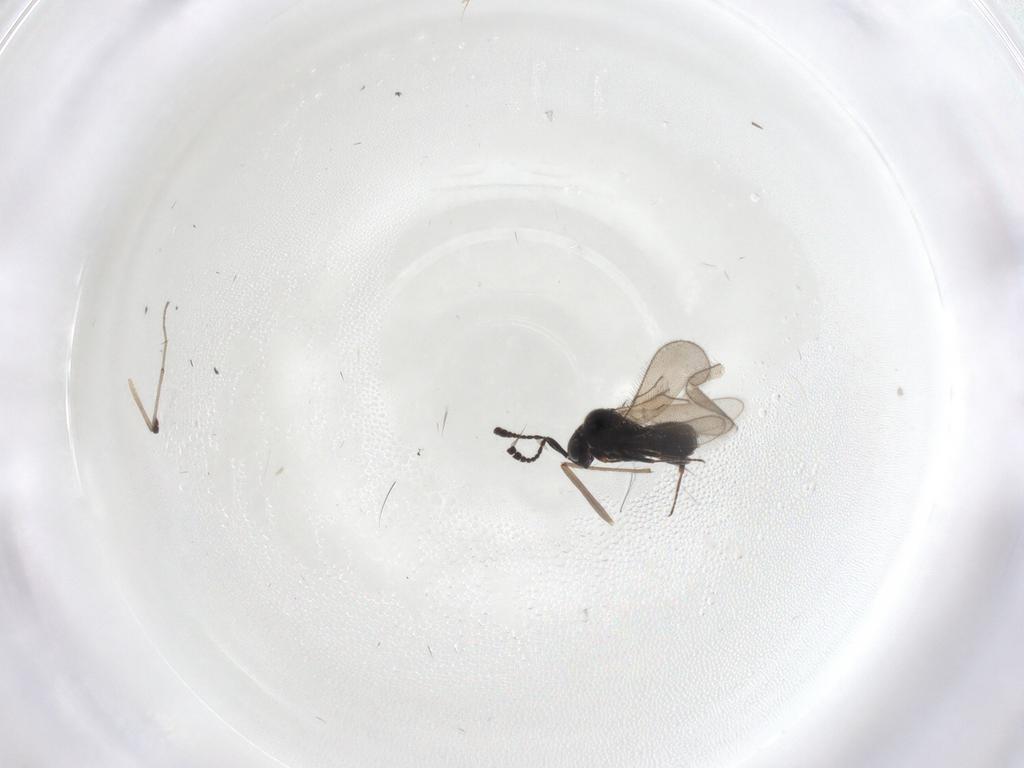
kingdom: Animalia
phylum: Arthropoda
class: Insecta
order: Hymenoptera
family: Scelionidae
